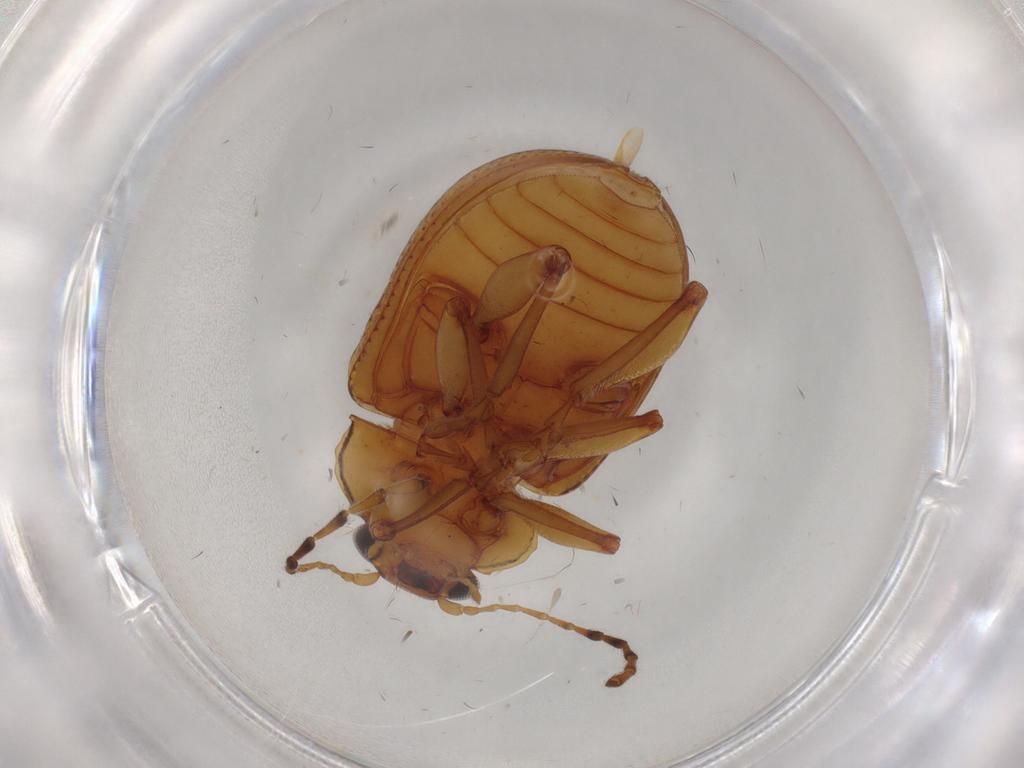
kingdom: Animalia
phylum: Arthropoda
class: Insecta
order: Coleoptera
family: Chrysomelidae
